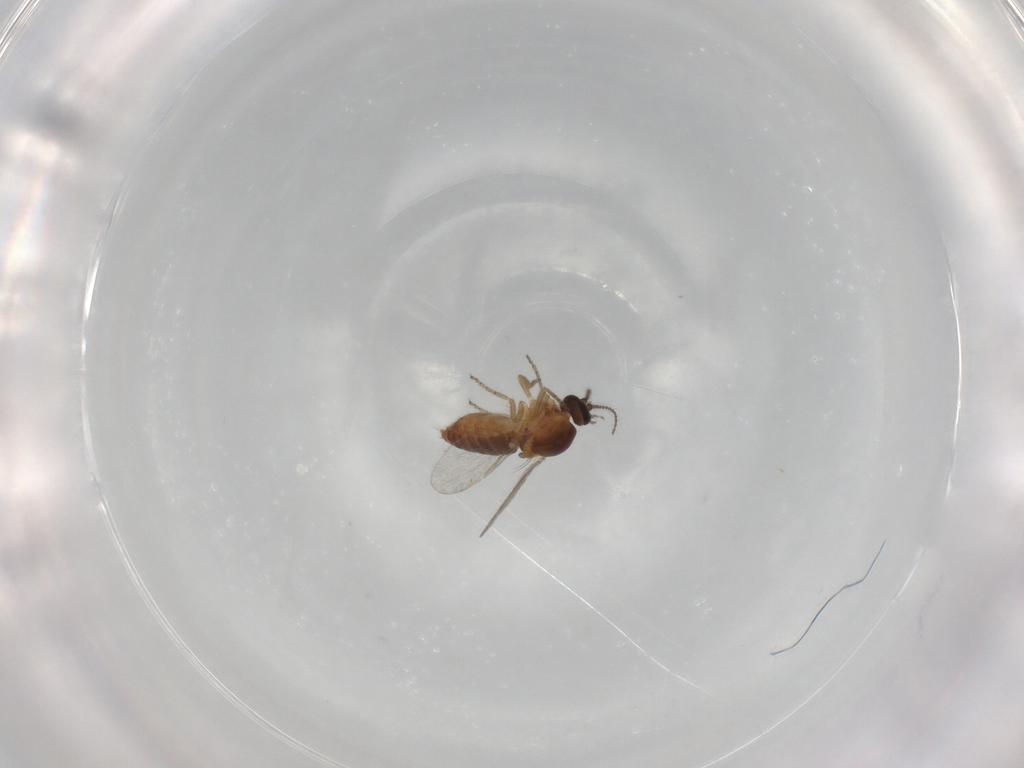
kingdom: Animalia
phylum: Arthropoda
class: Insecta
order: Diptera
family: Ceratopogonidae
